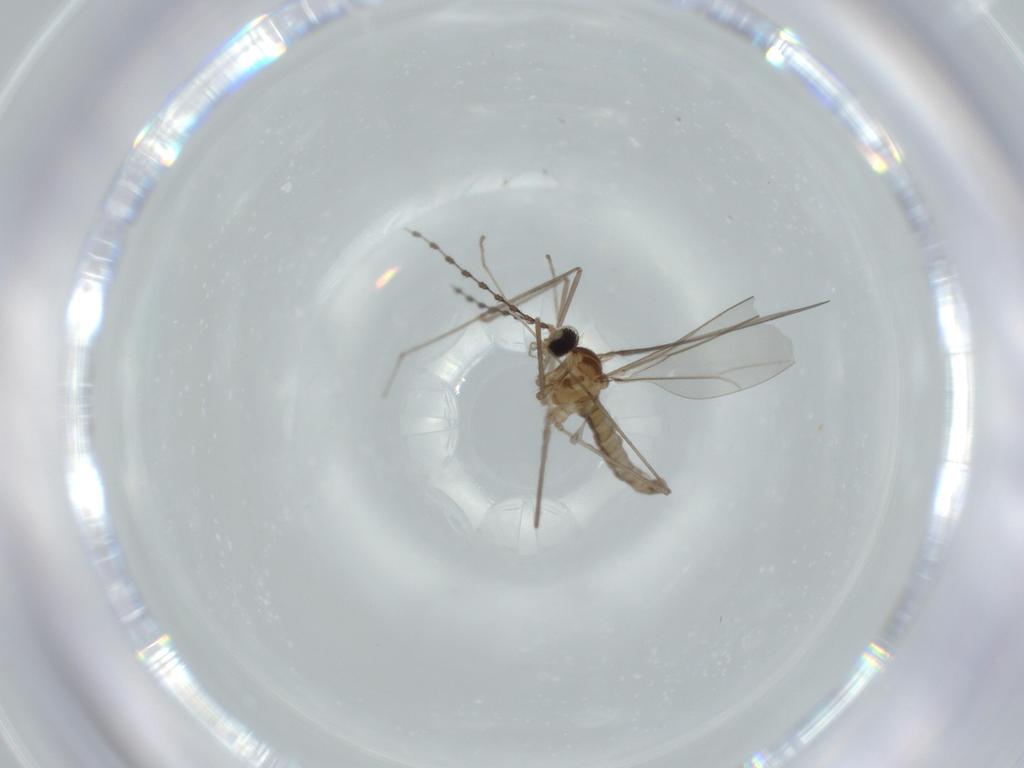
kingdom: Animalia
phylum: Arthropoda
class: Insecta
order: Diptera
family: Cecidomyiidae
